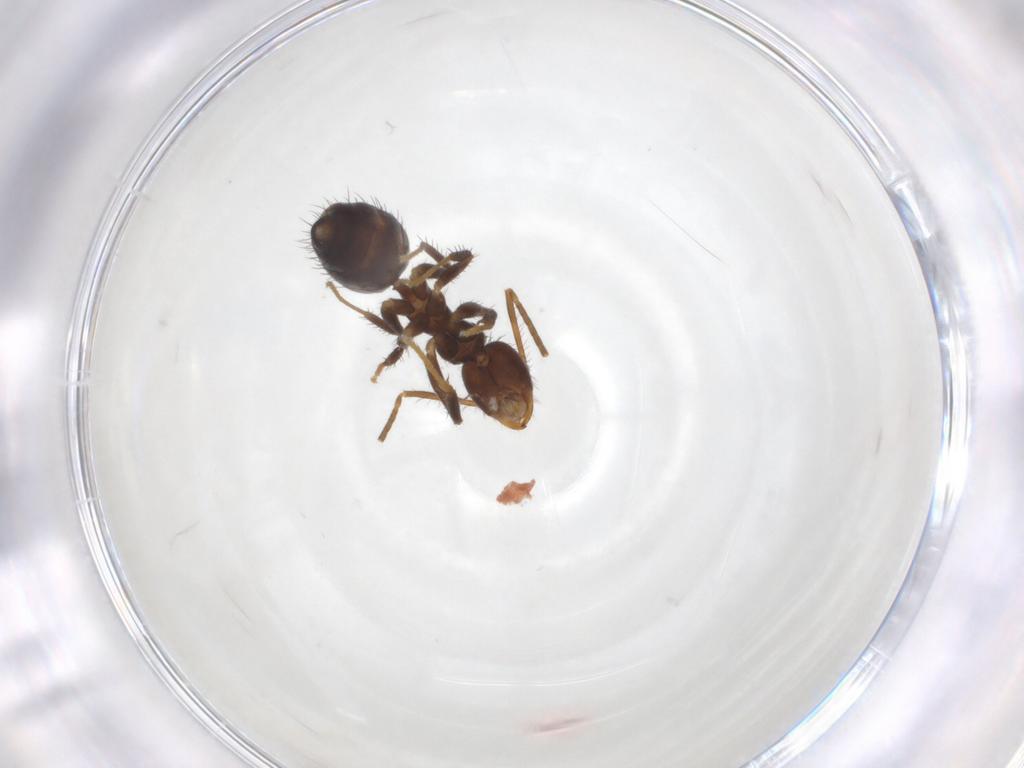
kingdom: Animalia
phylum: Arthropoda
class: Insecta
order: Hymenoptera
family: Formicidae
